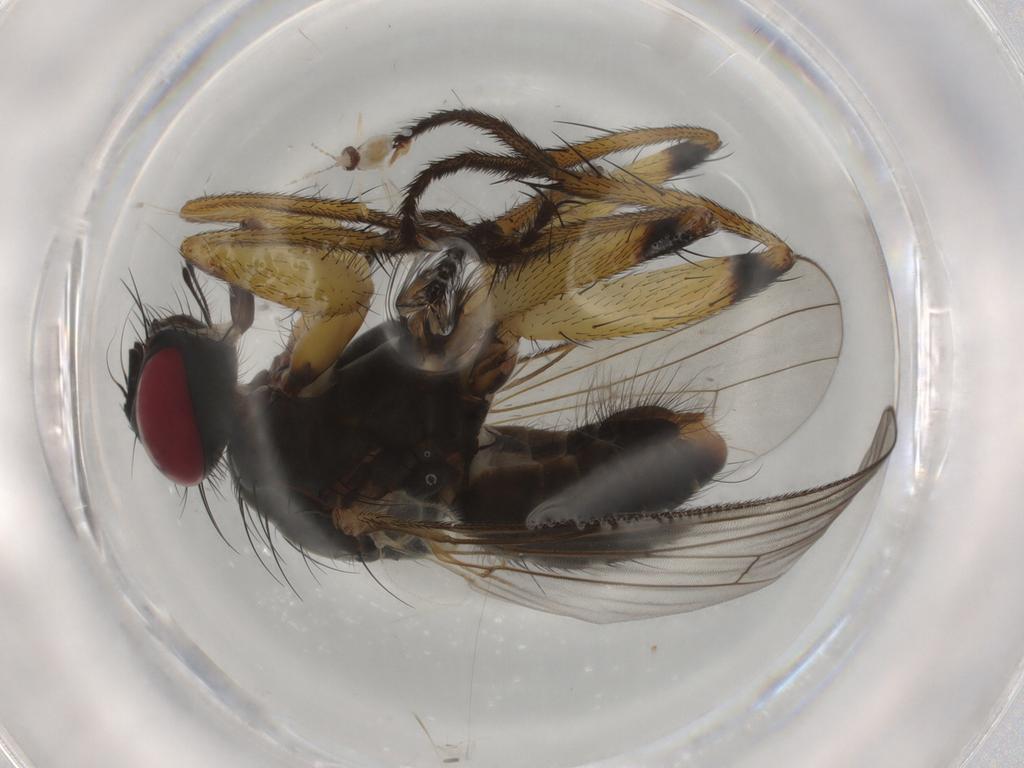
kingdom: Animalia
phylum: Arthropoda
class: Insecta
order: Diptera
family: Muscidae
